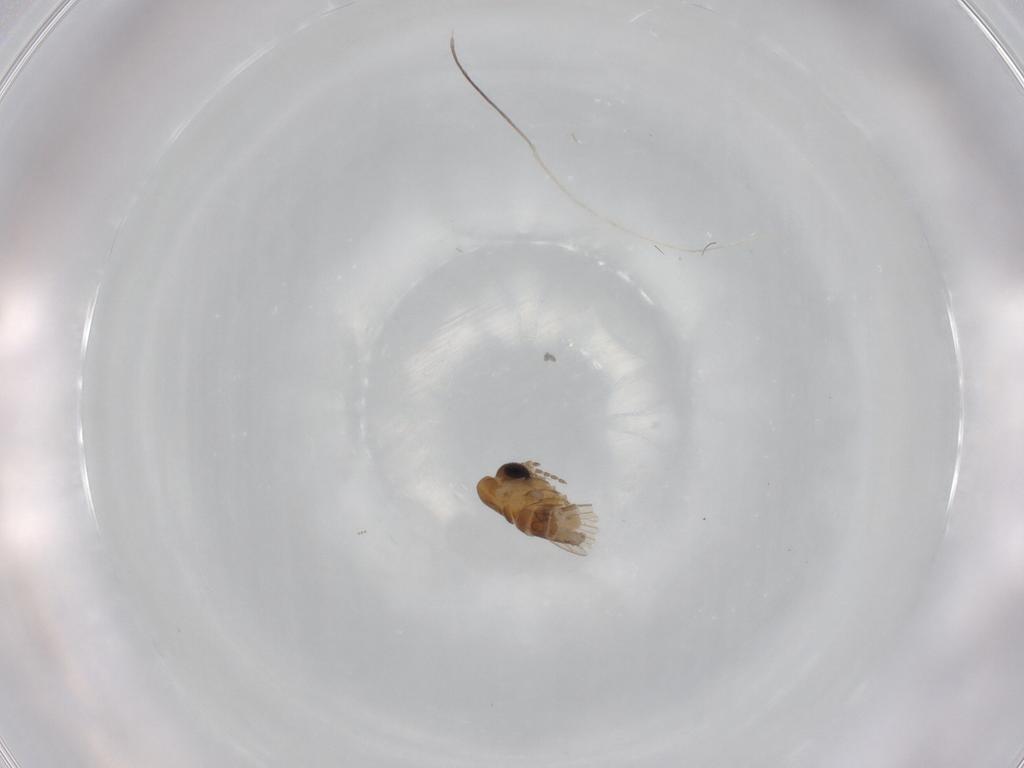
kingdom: Animalia
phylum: Arthropoda
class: Insecta
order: Diptera
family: Cecidomyiidae
